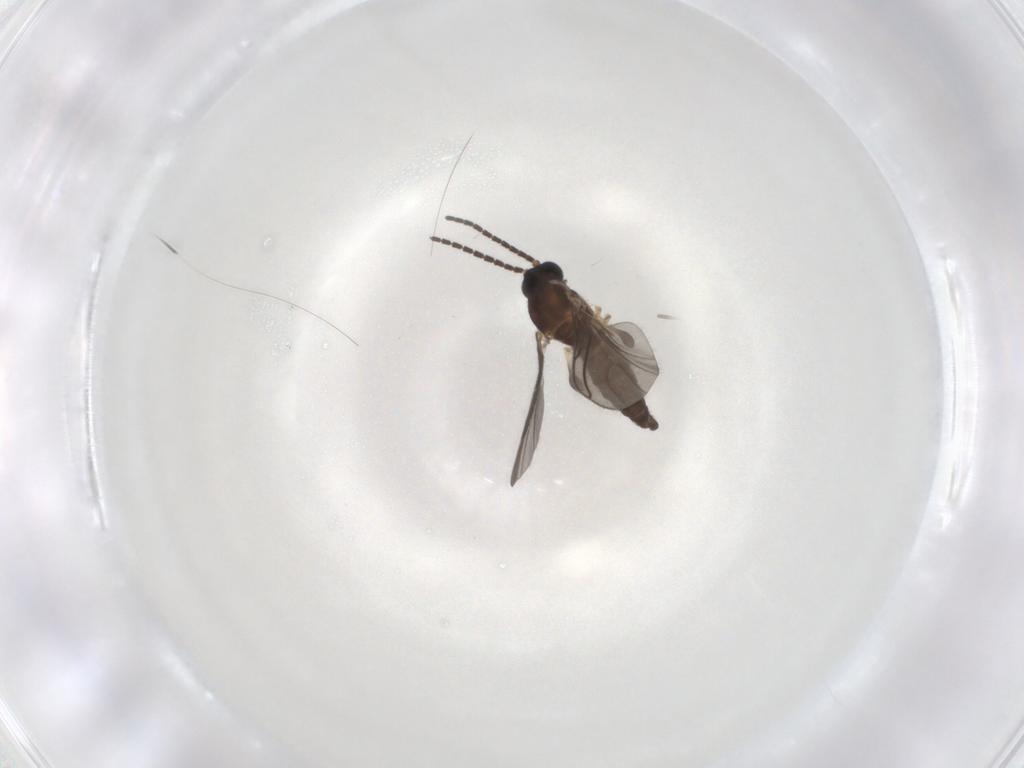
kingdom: Animalia
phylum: Arthropoda
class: Insecta
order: Diptera
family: Sciaridae
